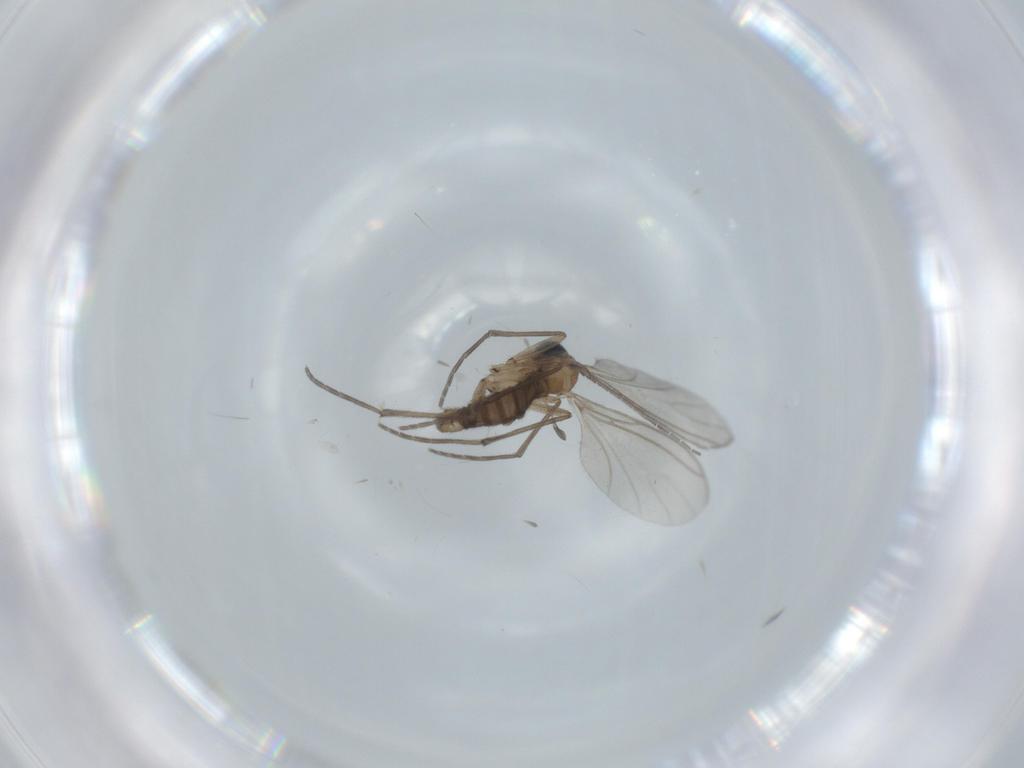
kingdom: Animalia
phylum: Arthropoda
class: Insecta
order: Diptera
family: Sciaridae
